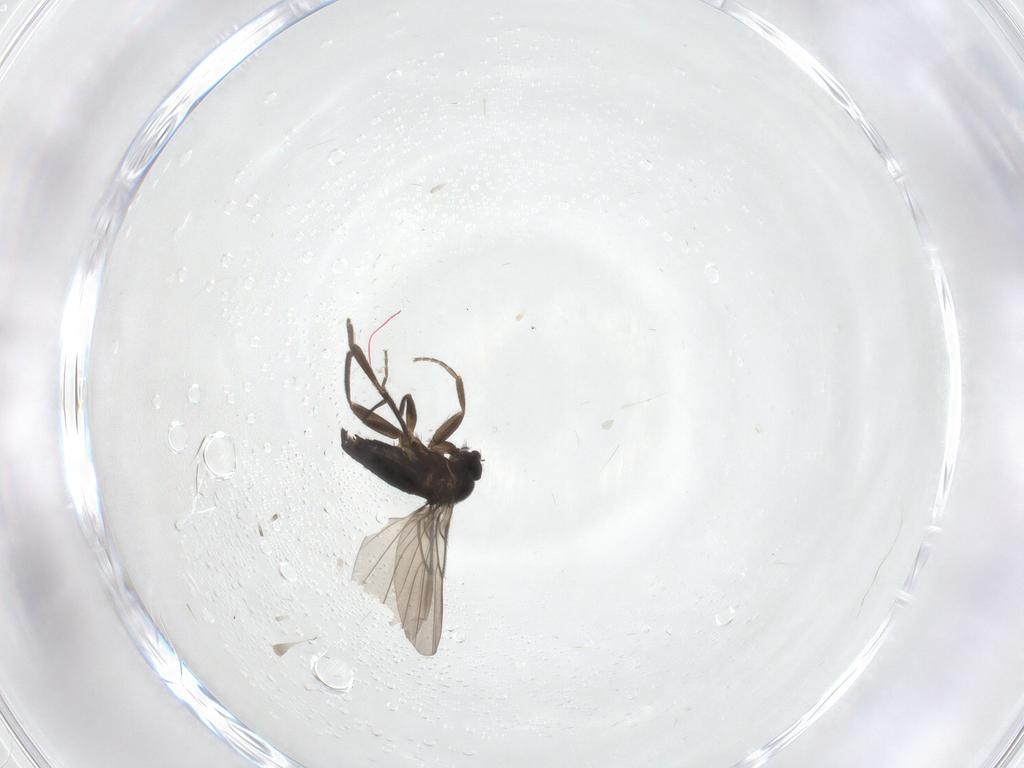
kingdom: Animalia
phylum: Arthropoda
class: Insecta
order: Diptera
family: Phoridae
